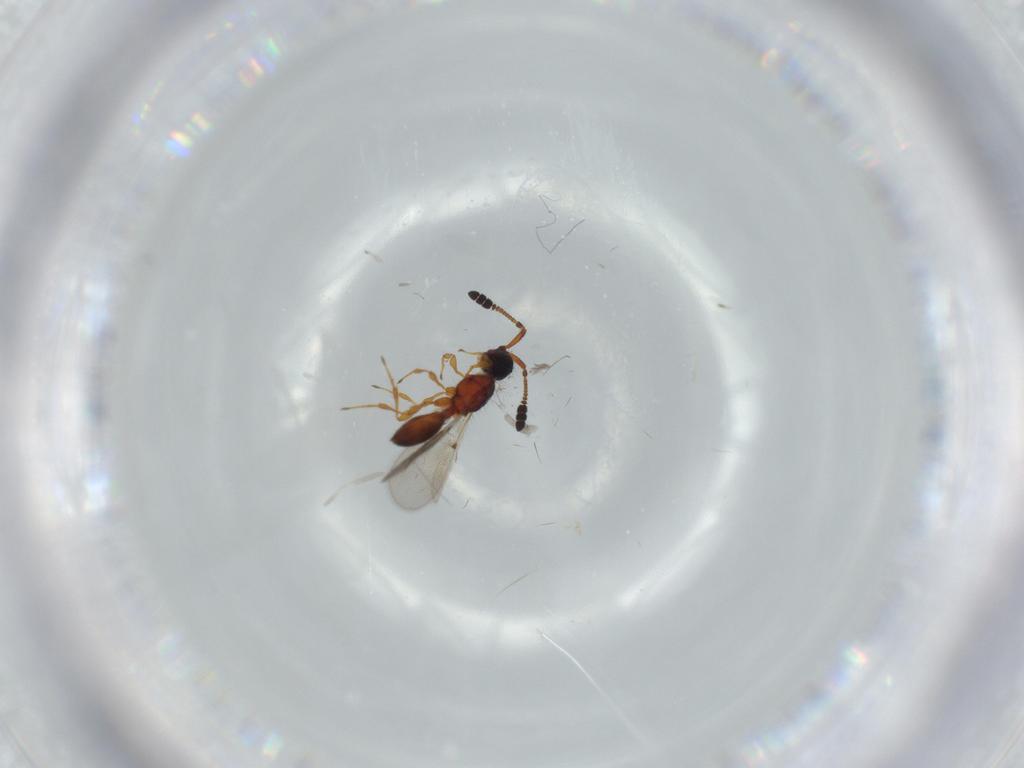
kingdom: Animalia
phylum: Arthropoda
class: Insecta
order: Hymenoptera
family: Diapriidae
